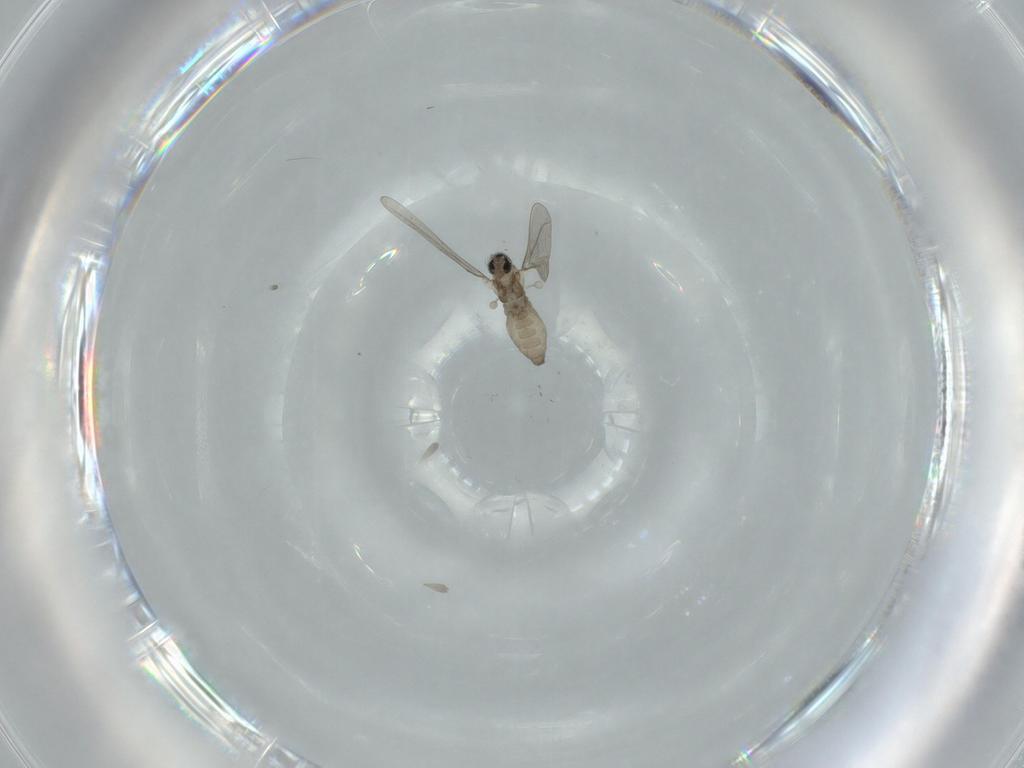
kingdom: Animalia
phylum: Arthropoda
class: Insecta
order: Diptera
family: Cecidomyiidae
